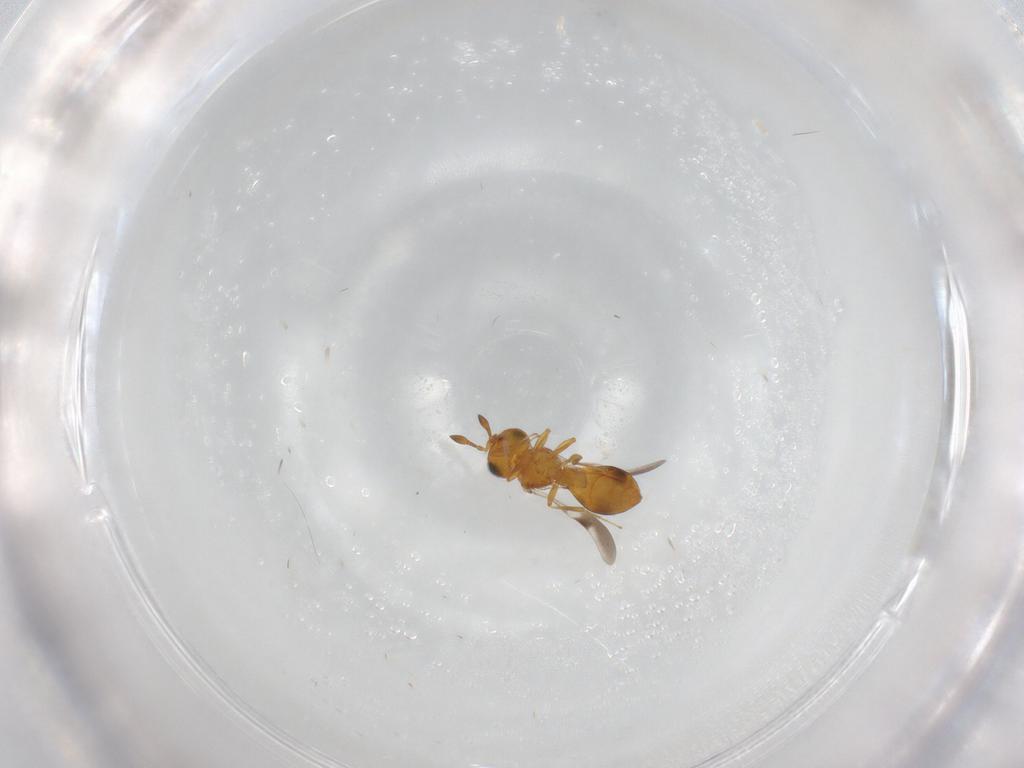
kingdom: Animalia
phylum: Arthropoda
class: Insecta
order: Hymenoptera
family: Scelionidae
